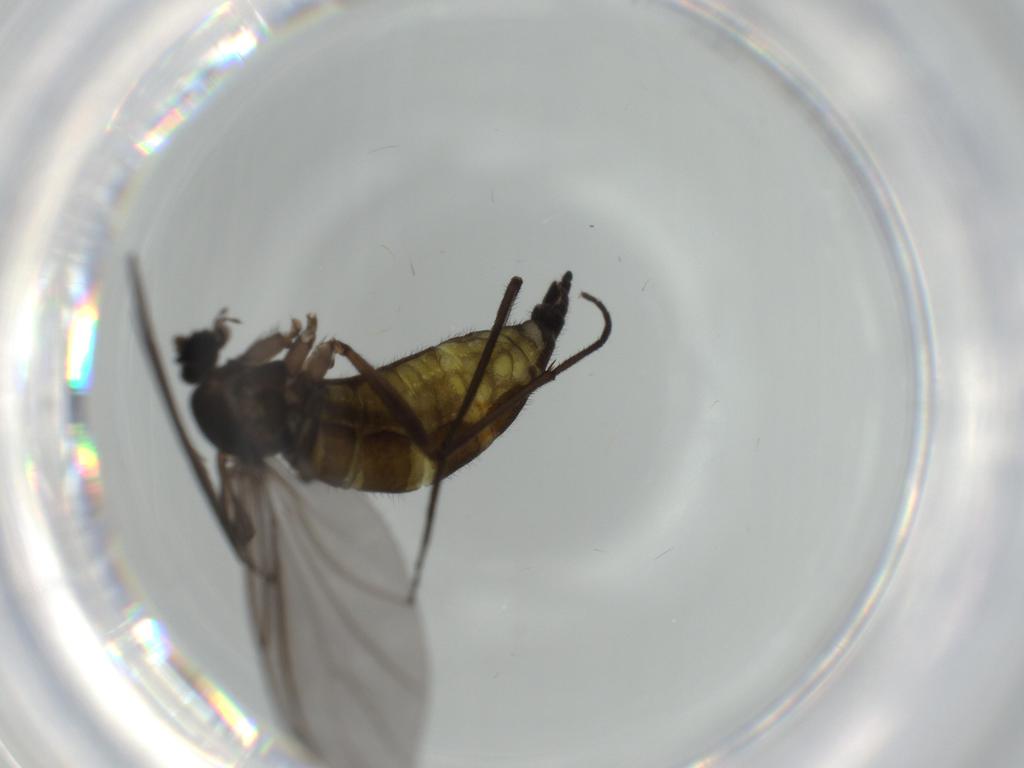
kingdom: Animalia
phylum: Arthropoda
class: Insecta
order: Diptera
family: Sciaridae
